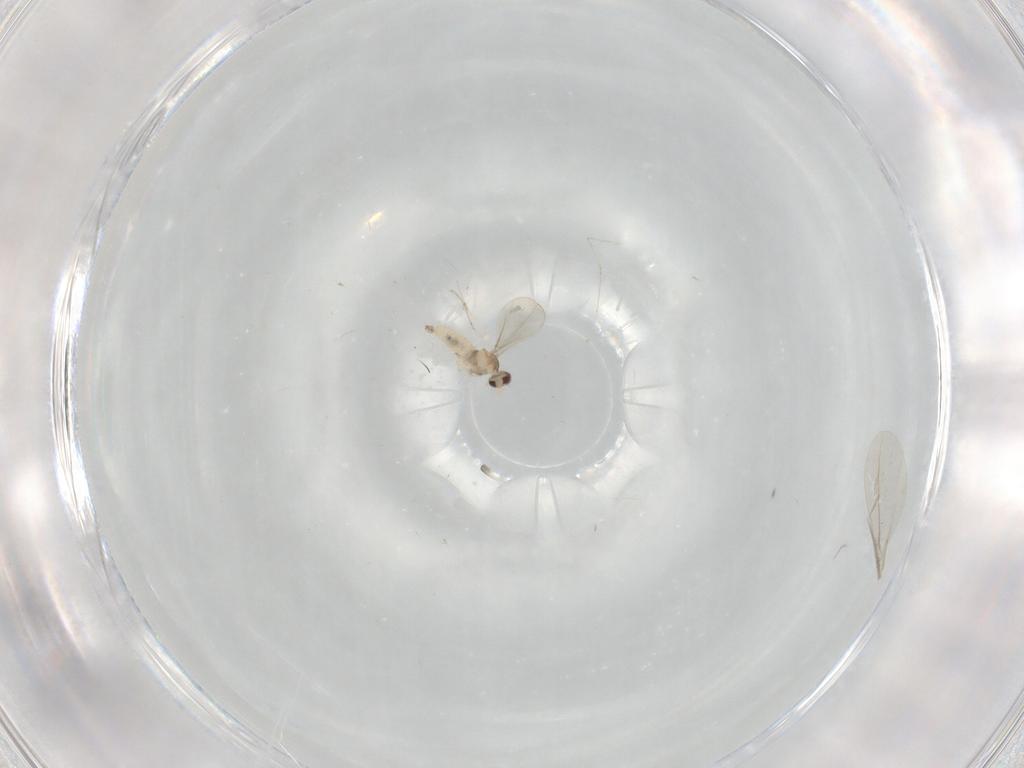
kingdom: Animalia
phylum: Arthropoda
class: Insecta
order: Diptera
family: Cecidomyiidae
